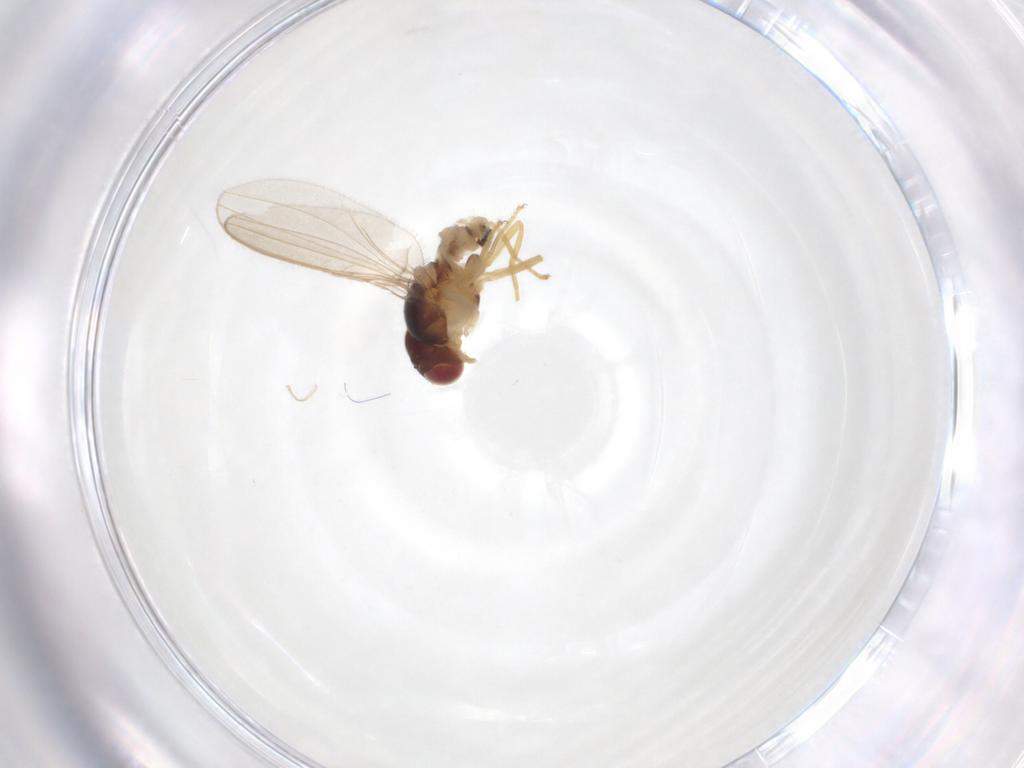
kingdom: Animalia
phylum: Arthropoda
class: Insecta
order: Diptera
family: Asteiidae
